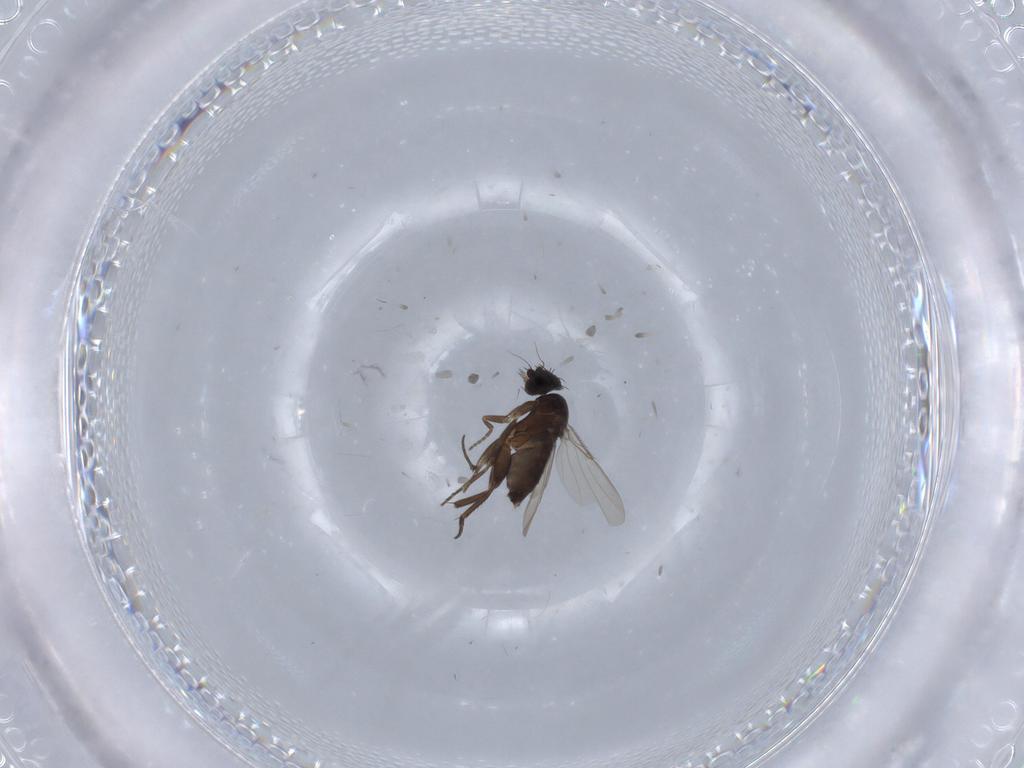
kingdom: Animalia
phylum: Arthropoda
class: Insecta
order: Diptera
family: Phoridae
